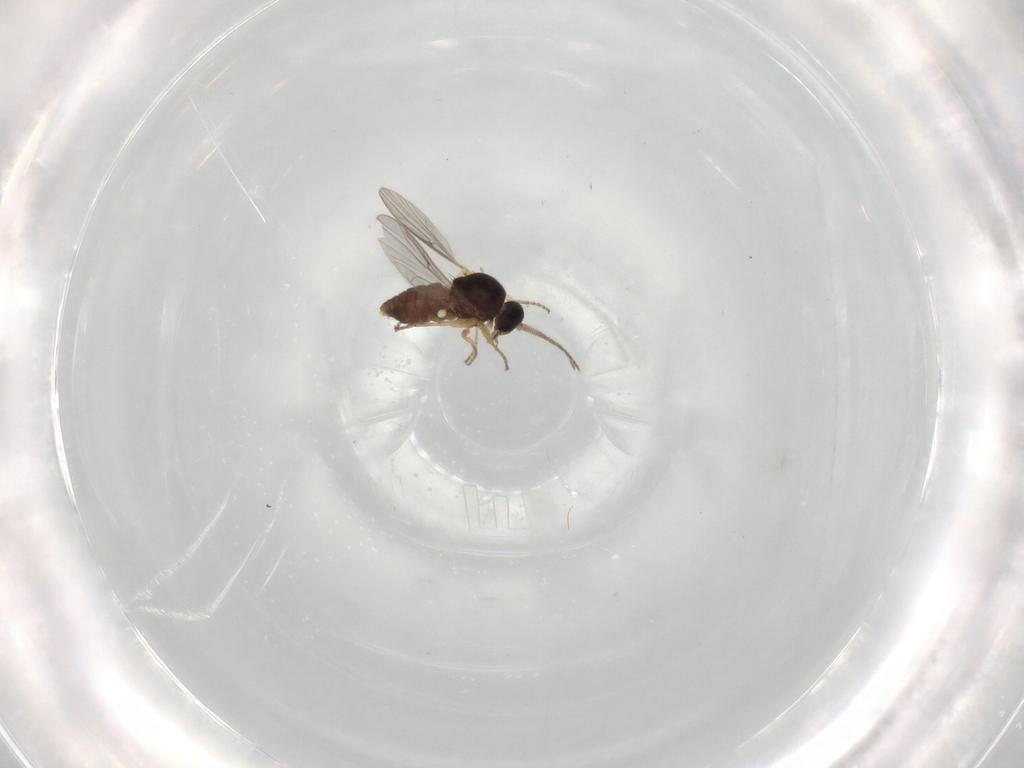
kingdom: Animalia
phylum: Arthropoda
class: Insecta
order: Diptera
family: Ceratopogonidae
